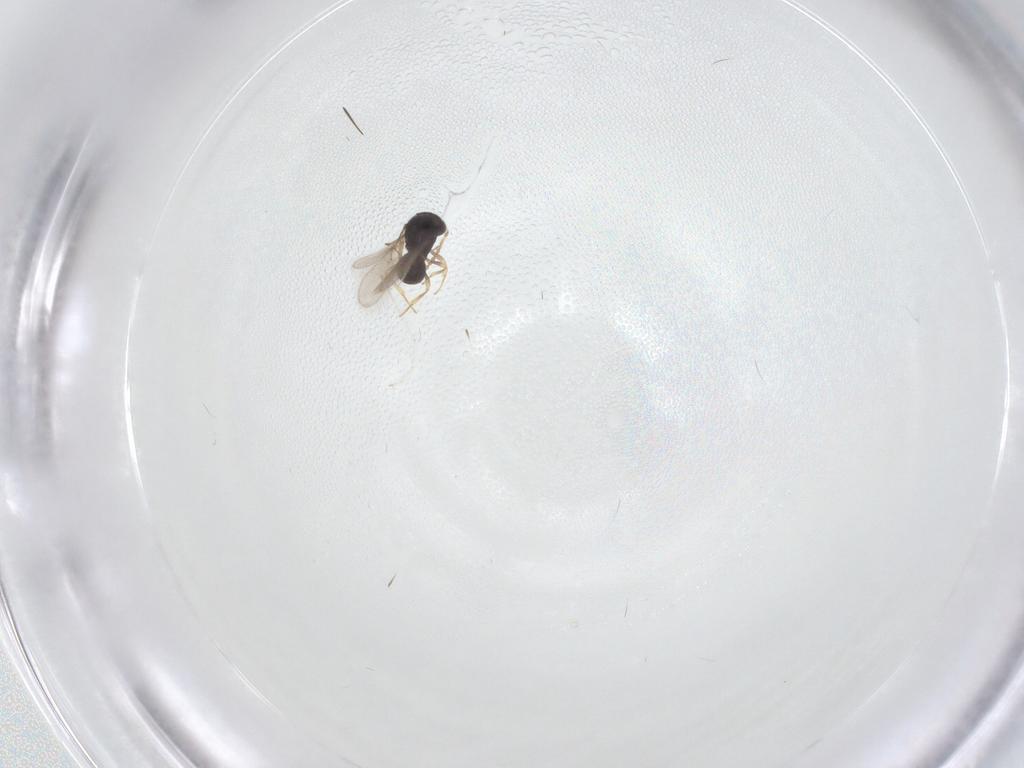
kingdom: Animalia
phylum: Arthropoda
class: Insecta
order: Hymenoptera
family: Scelionidae
